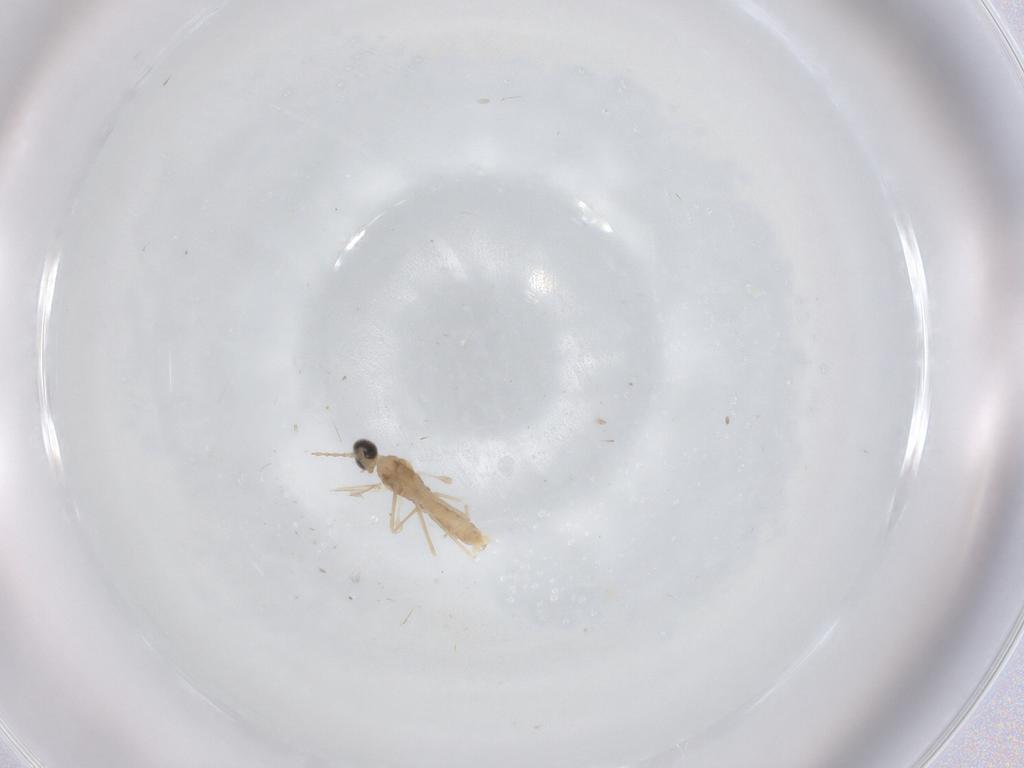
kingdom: Animalia
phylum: Arthropoda
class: Insecta
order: Diptera
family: Cecidomyiidae
